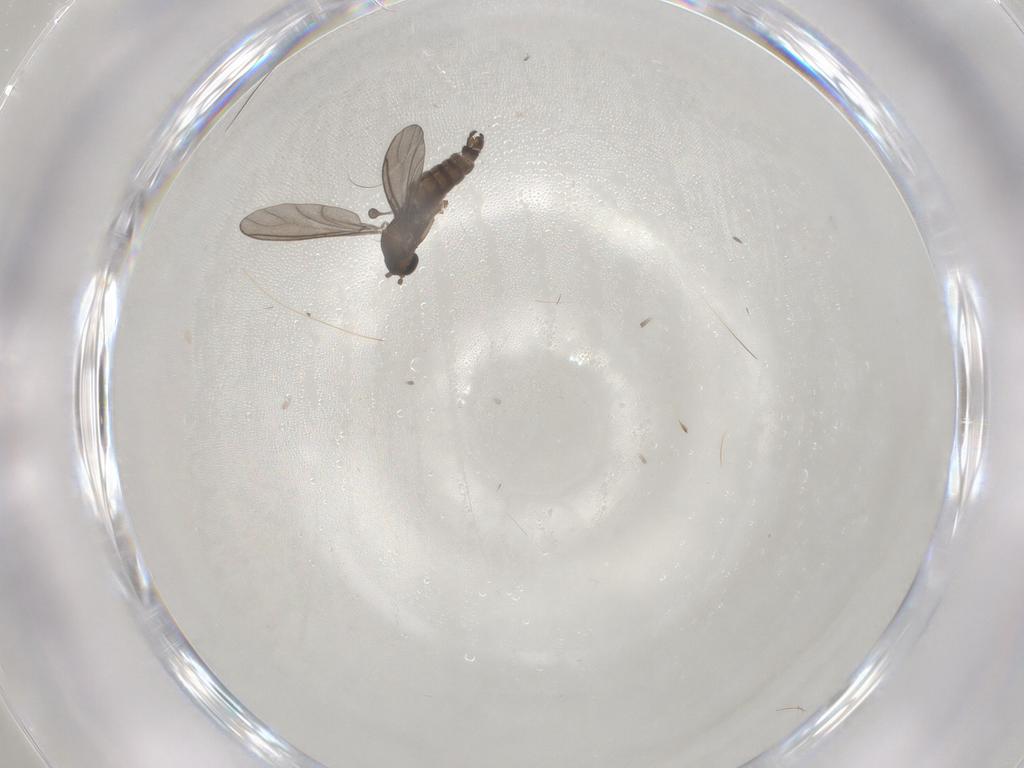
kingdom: Animalia
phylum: Arthropoda
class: Insecta
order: Diptera
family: Sciaridae
